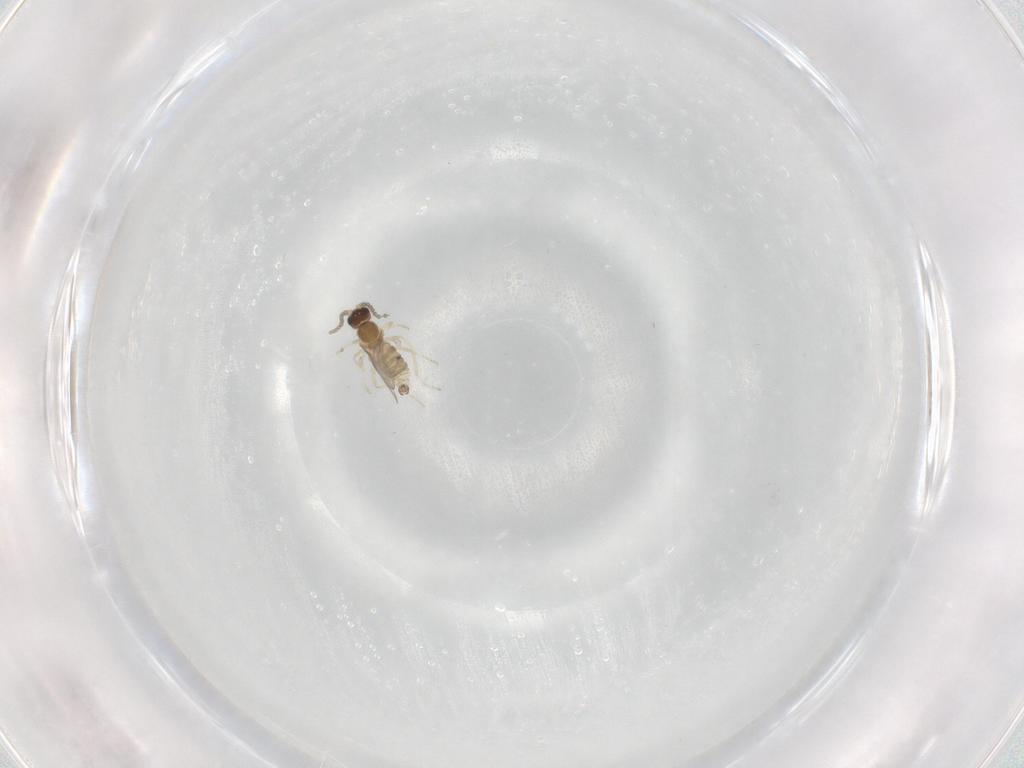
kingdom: Animalia
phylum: Arthropoda
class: Insecta
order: Diptera
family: Cecidomyiidae
